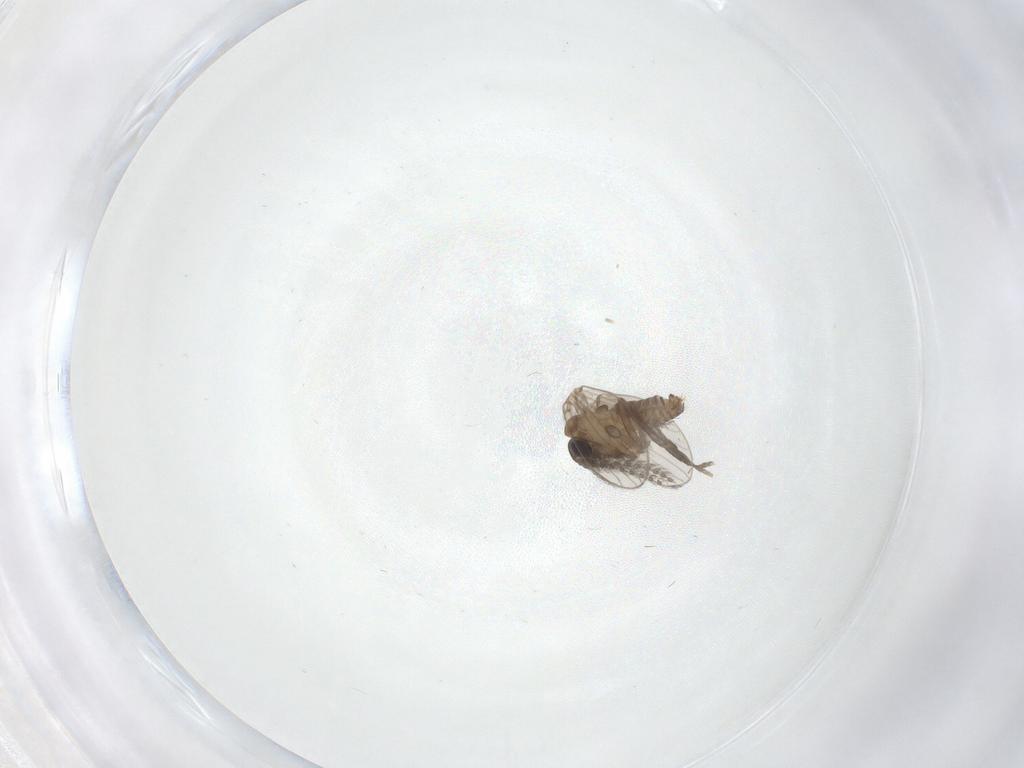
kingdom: Animalia
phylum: Arthropoda
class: Insecta
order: Diptera
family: Psychodidae
